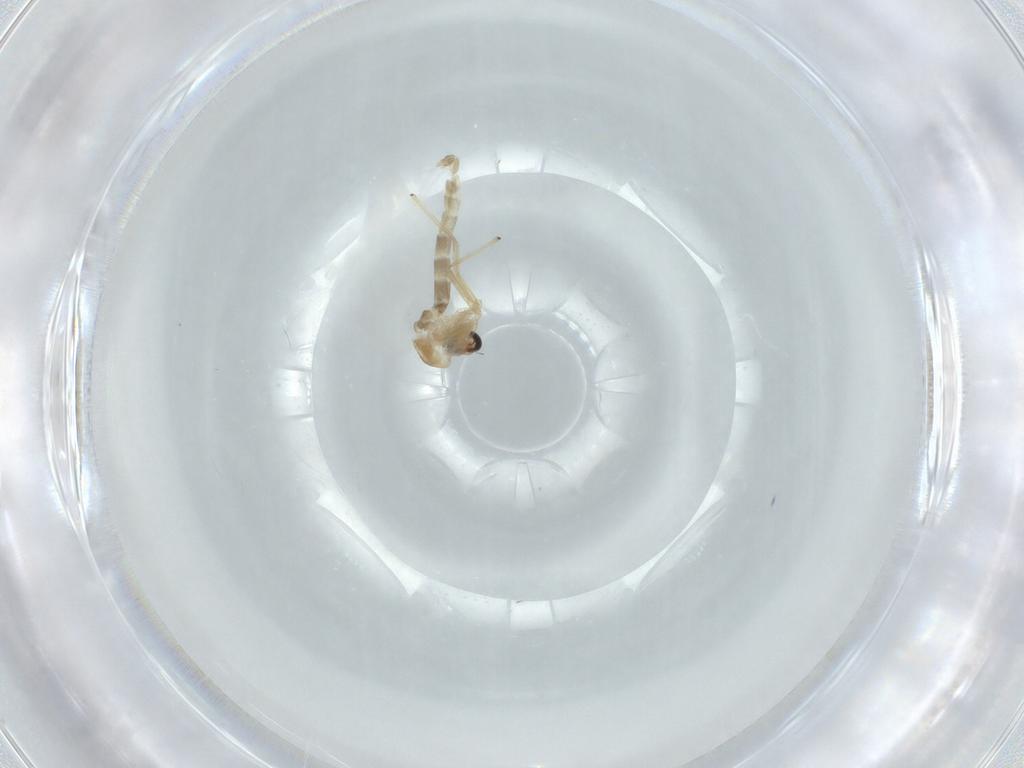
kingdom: Animalia
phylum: Arthropoda
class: Insecta
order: Diptera
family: Chironomidae
